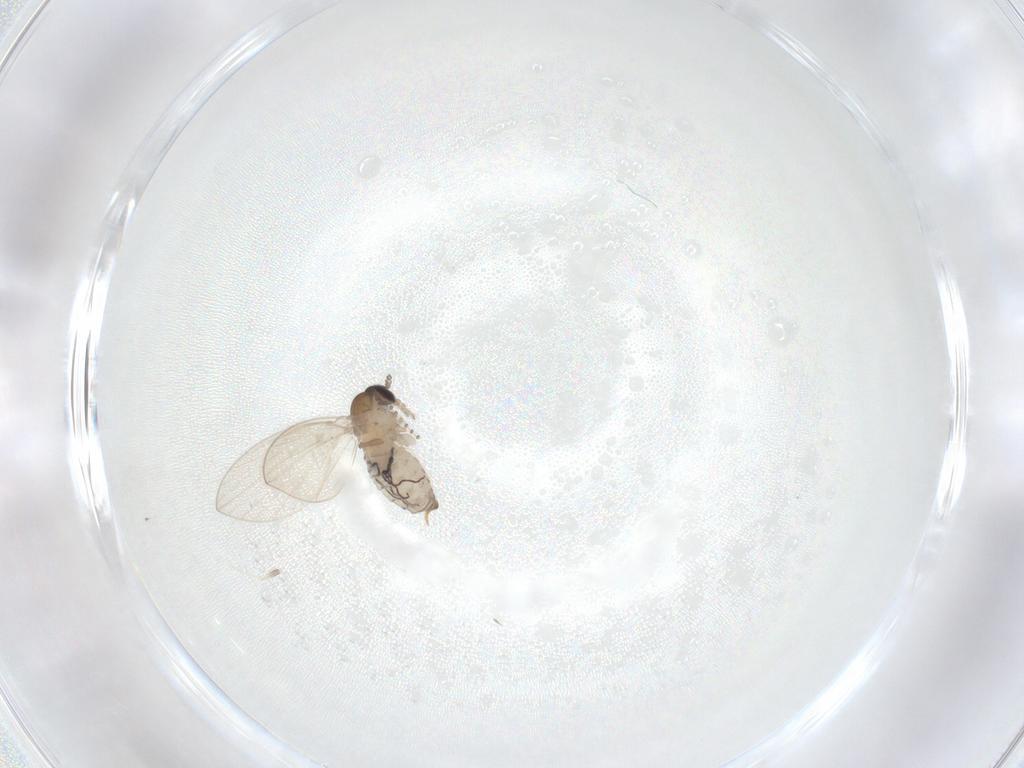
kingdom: Animalia
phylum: Arthropoda
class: Insecta
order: Diptera
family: Psychodidae
